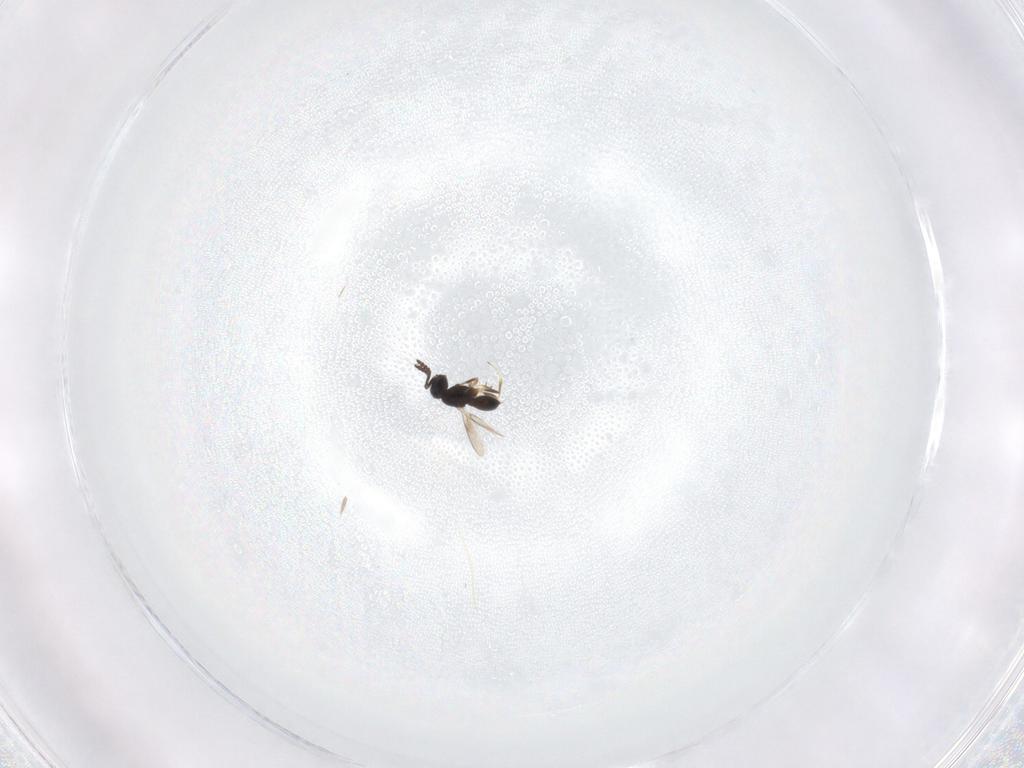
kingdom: Animalia
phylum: Arthropoda
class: Insecta
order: Hymenoptera
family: Scelionidae
